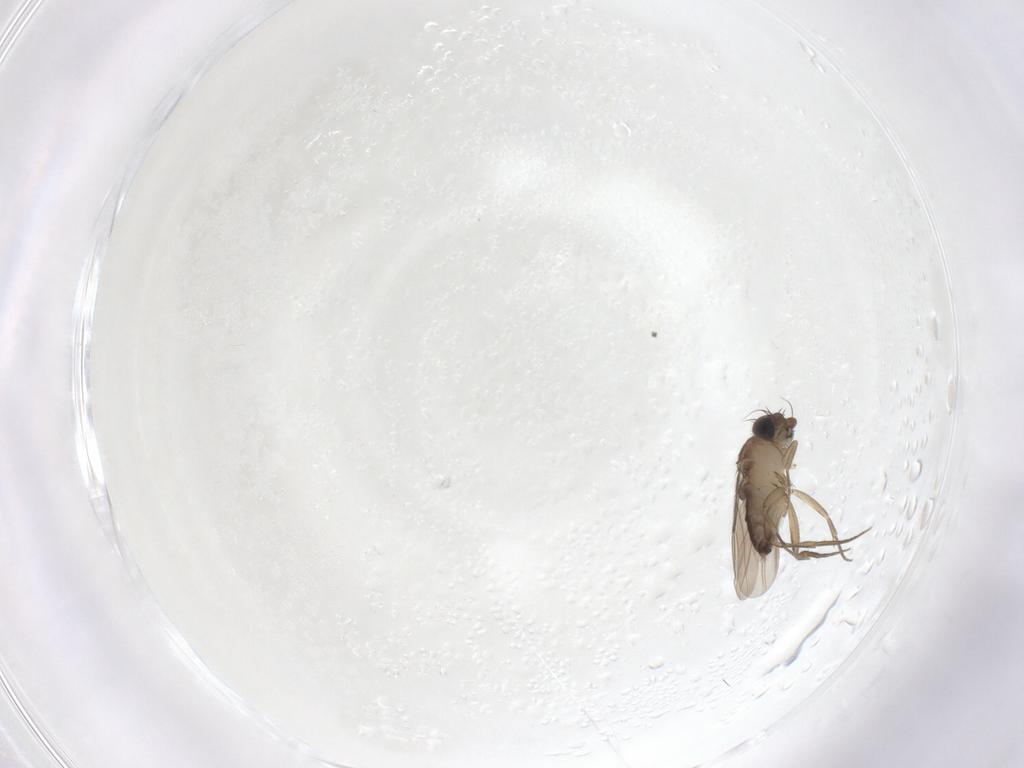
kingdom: Animalia
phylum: Arthropoda
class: Insecta
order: Diptera
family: Phoridae
